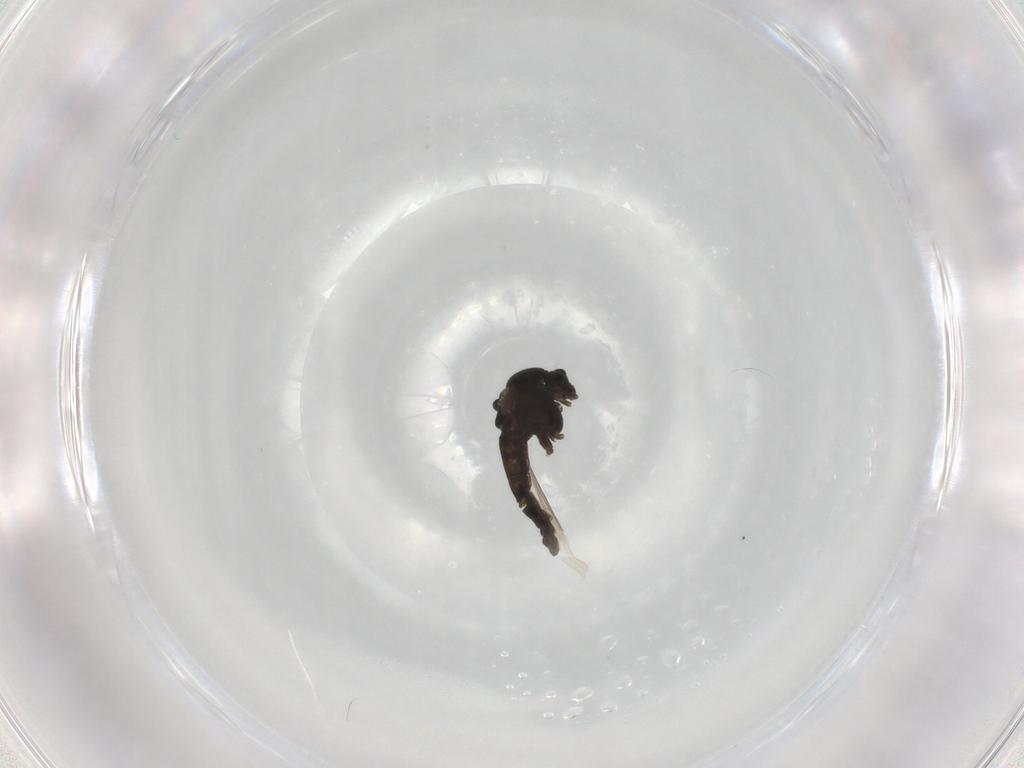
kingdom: Animalia
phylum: Arthropoda
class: Insecta
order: Diptera
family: Chironomidae
